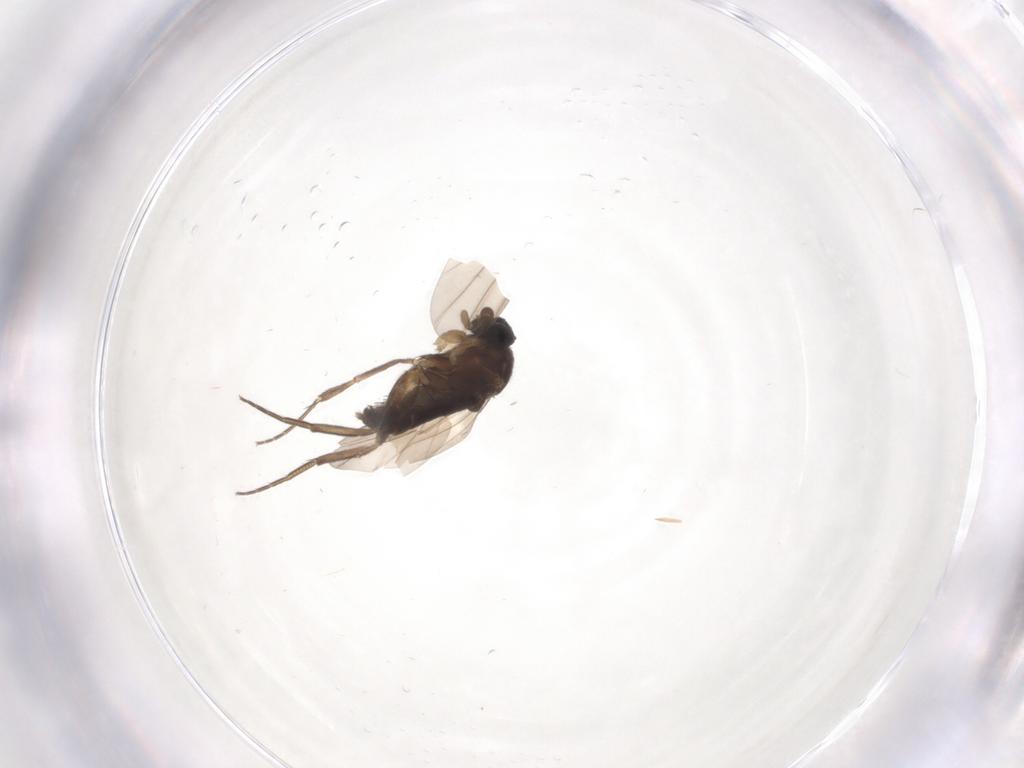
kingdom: Animalia
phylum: Arthropoda
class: Insecta
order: Diptera
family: Phoridae
